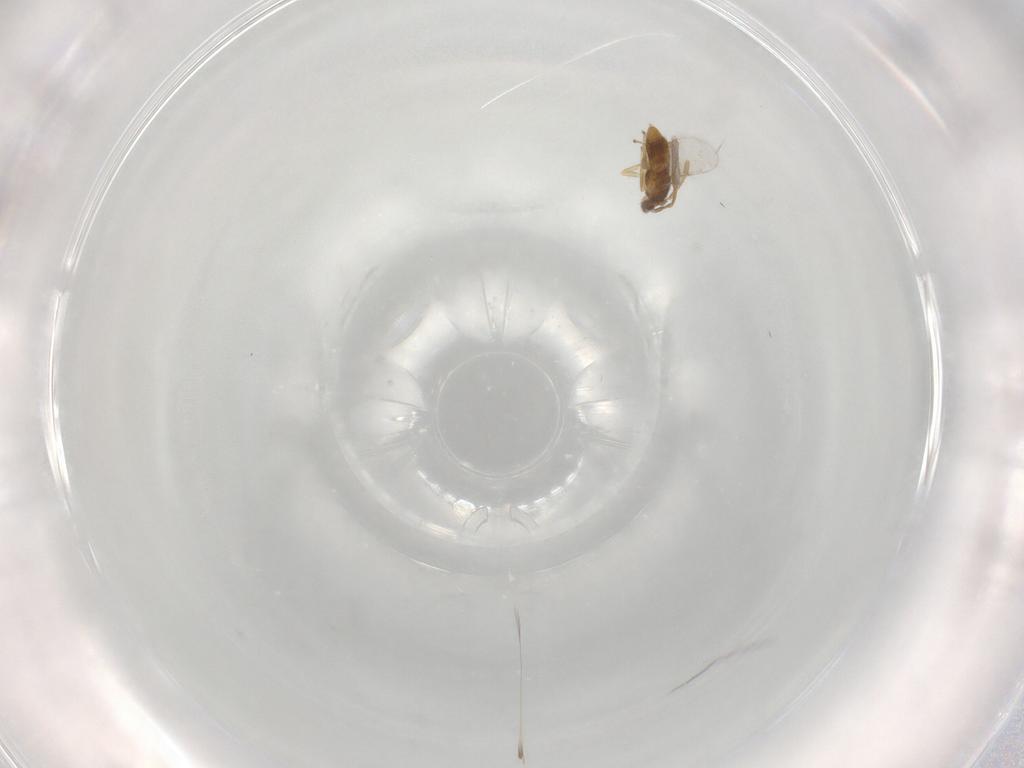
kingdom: Animalia
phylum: Arthropoda
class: Insecta
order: Hymenoptera
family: Encyrtidae
